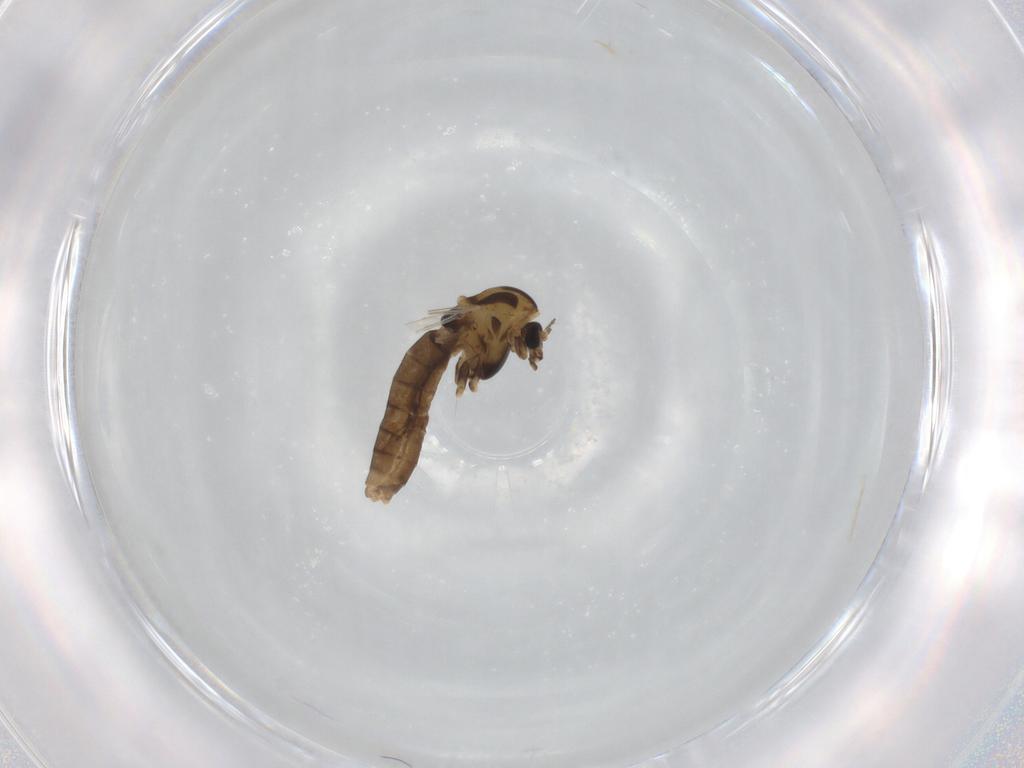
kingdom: Animalia
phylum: Arthropoda
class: Insecta
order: Diptera
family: Chironomidae
